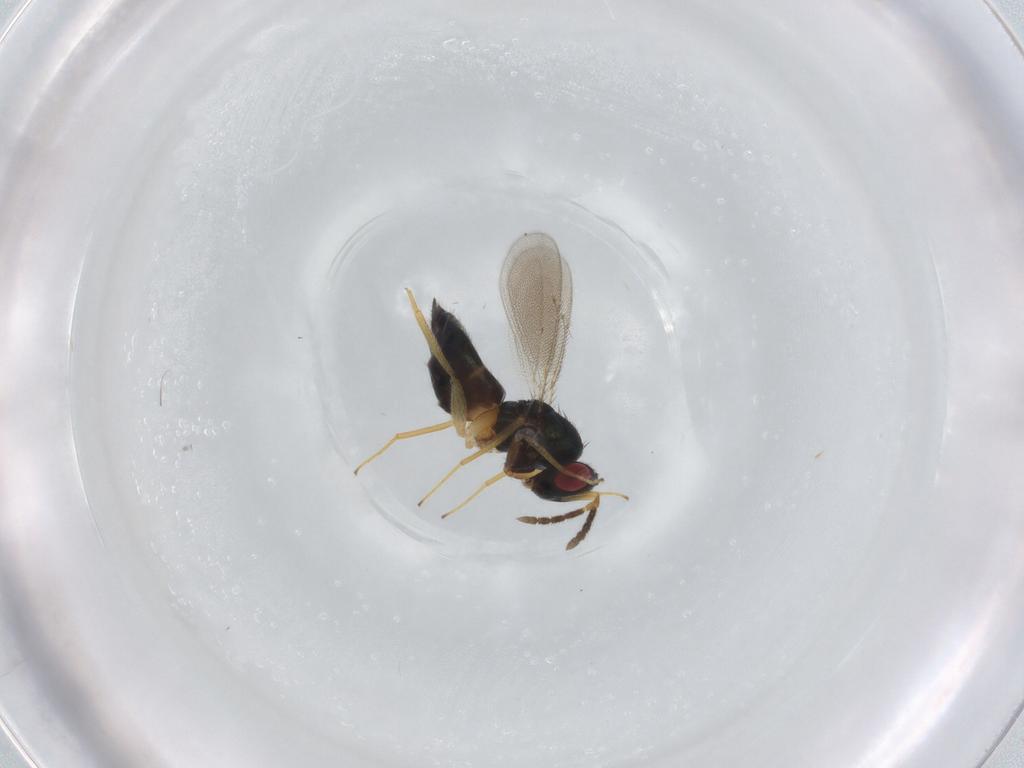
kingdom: Animalia
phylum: Arthropoda
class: Insecta
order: Hymenoptera
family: Eulophidae
